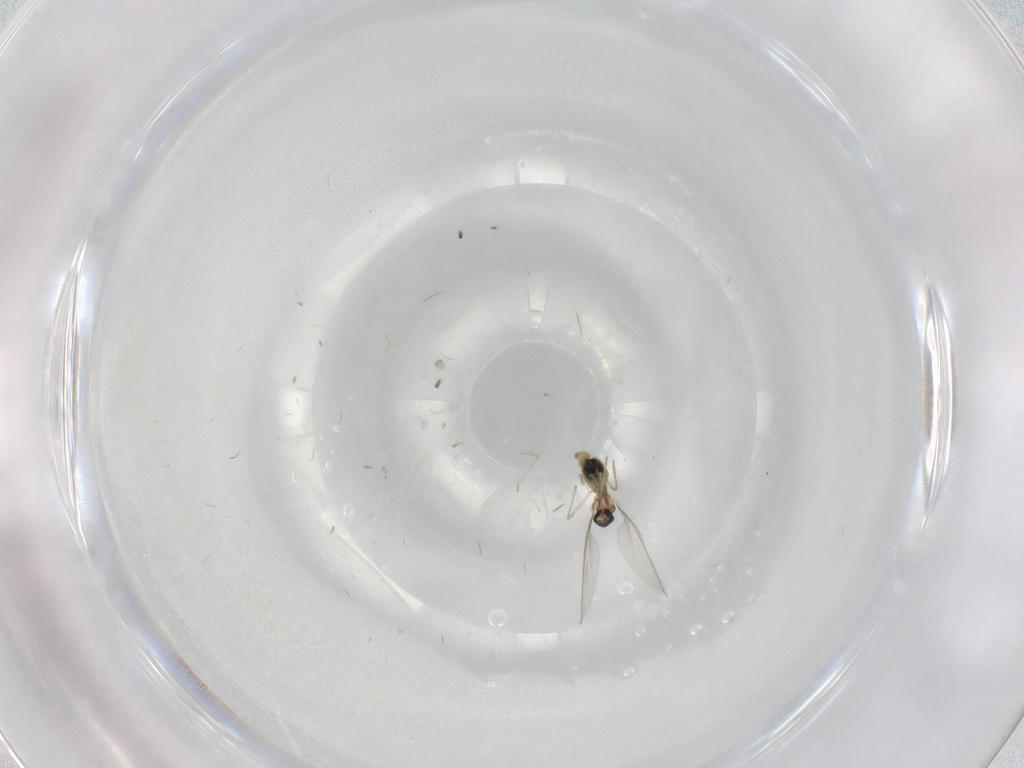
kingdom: Animalia
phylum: Arthropoda
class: Insecta
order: Diptera
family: Cecidomyiidae
